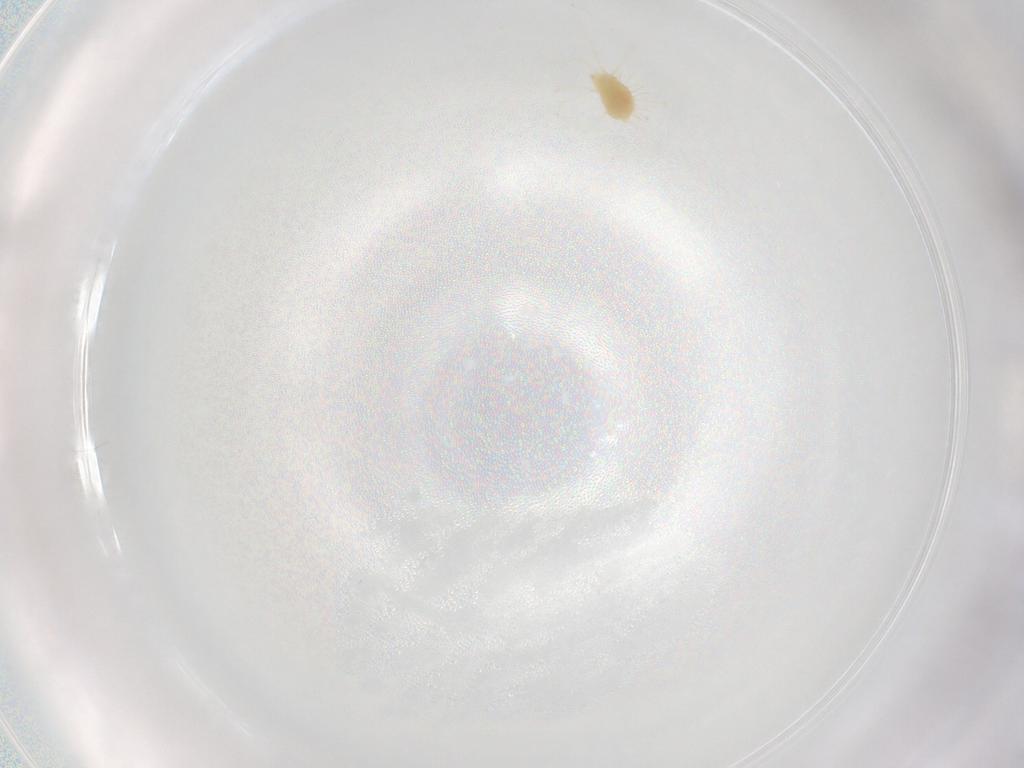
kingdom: Animalia
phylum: Arthropoda
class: Arachnida
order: Trombidiformes
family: Tetranychidae
